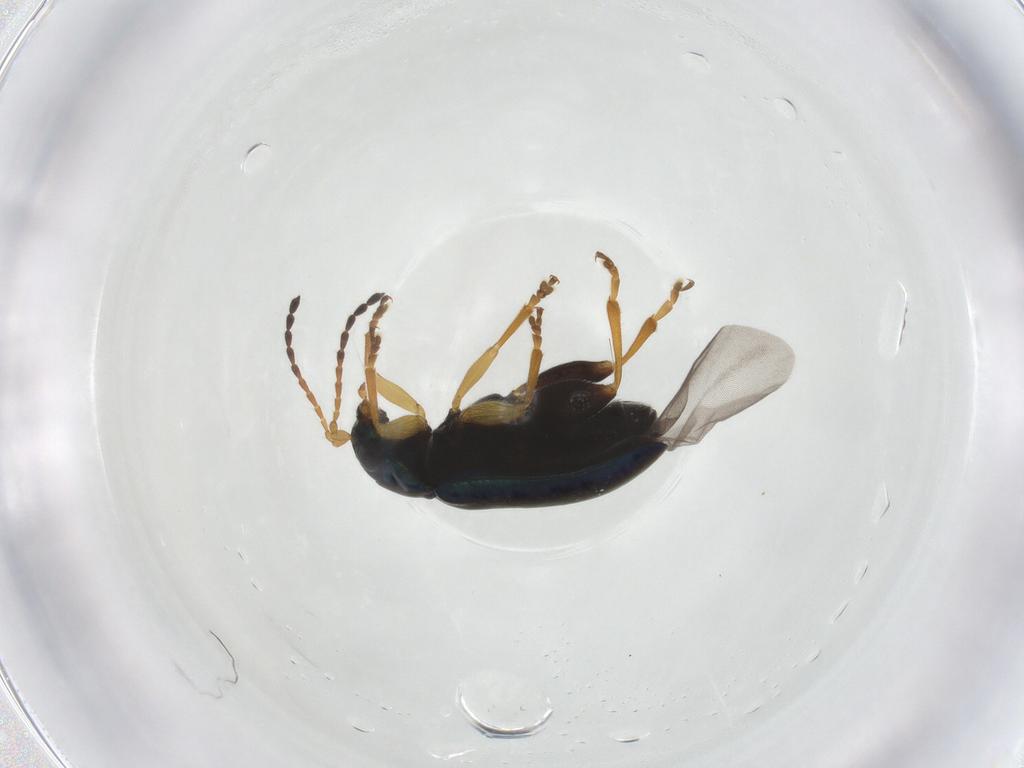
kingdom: Animalia
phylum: Arthropoda
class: Insecta
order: Coleoptera
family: Chrysomelidae
